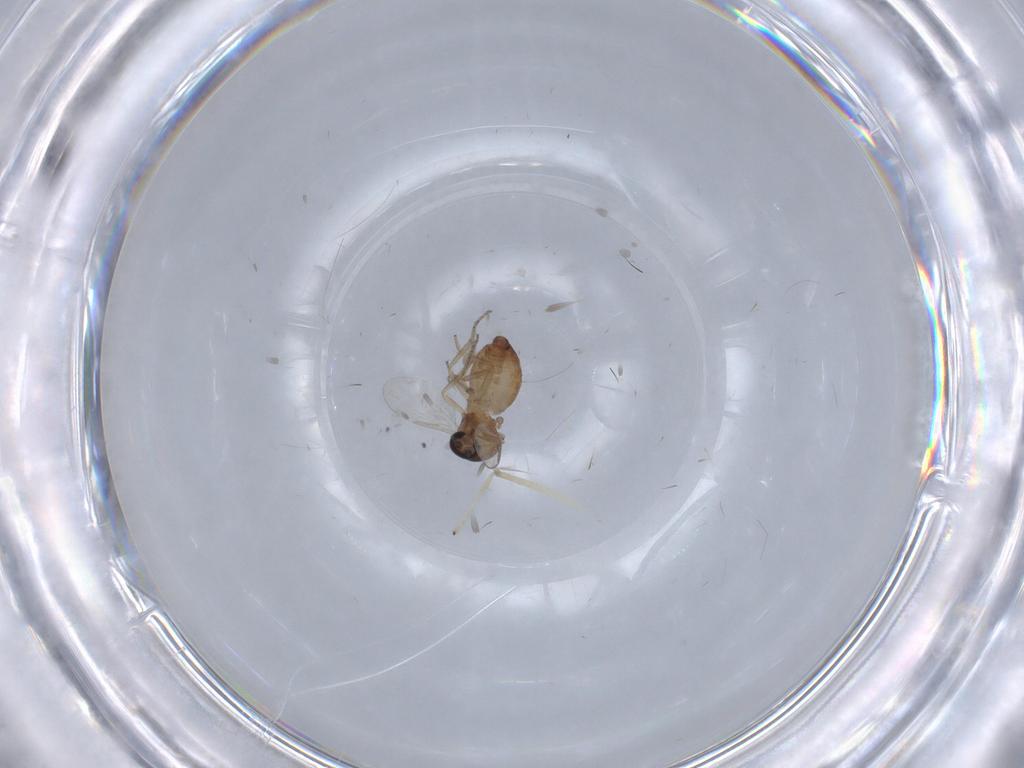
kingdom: Animalia
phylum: Arthropoda
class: Insecta
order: Diptera
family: Ceratopogonidae
